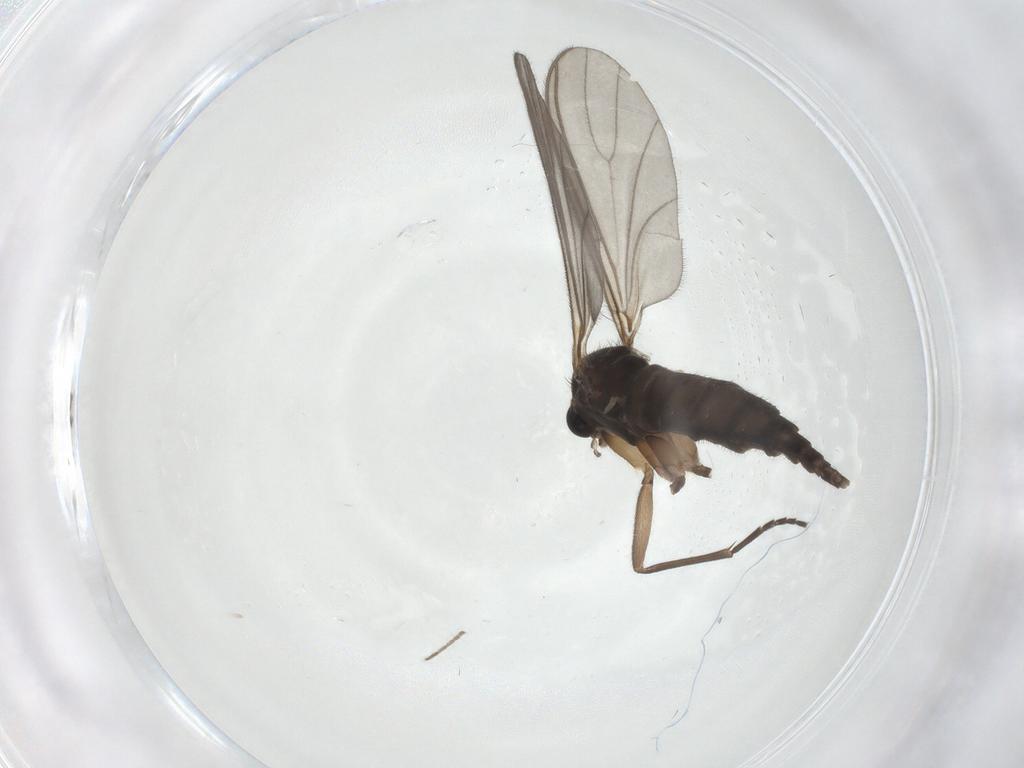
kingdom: Animalia
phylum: Arthropoda
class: Insecta
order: Diptera
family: Sciaridae
